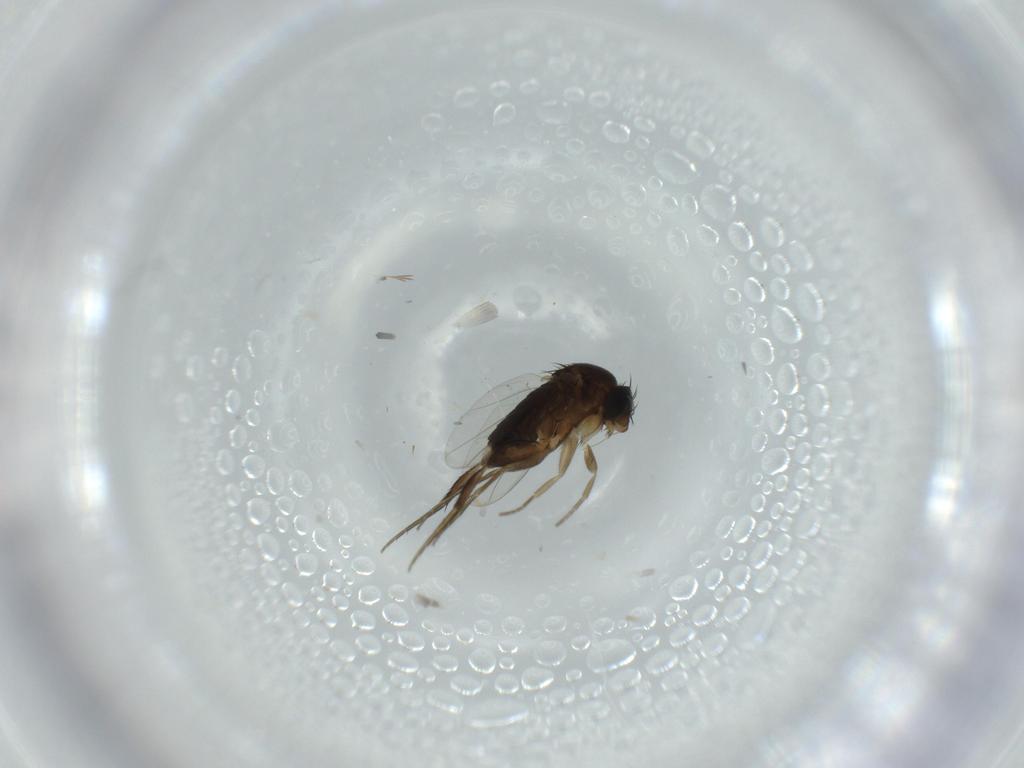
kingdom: Animalia
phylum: Arthropoda
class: Insecta
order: Diptera
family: Phoridae
